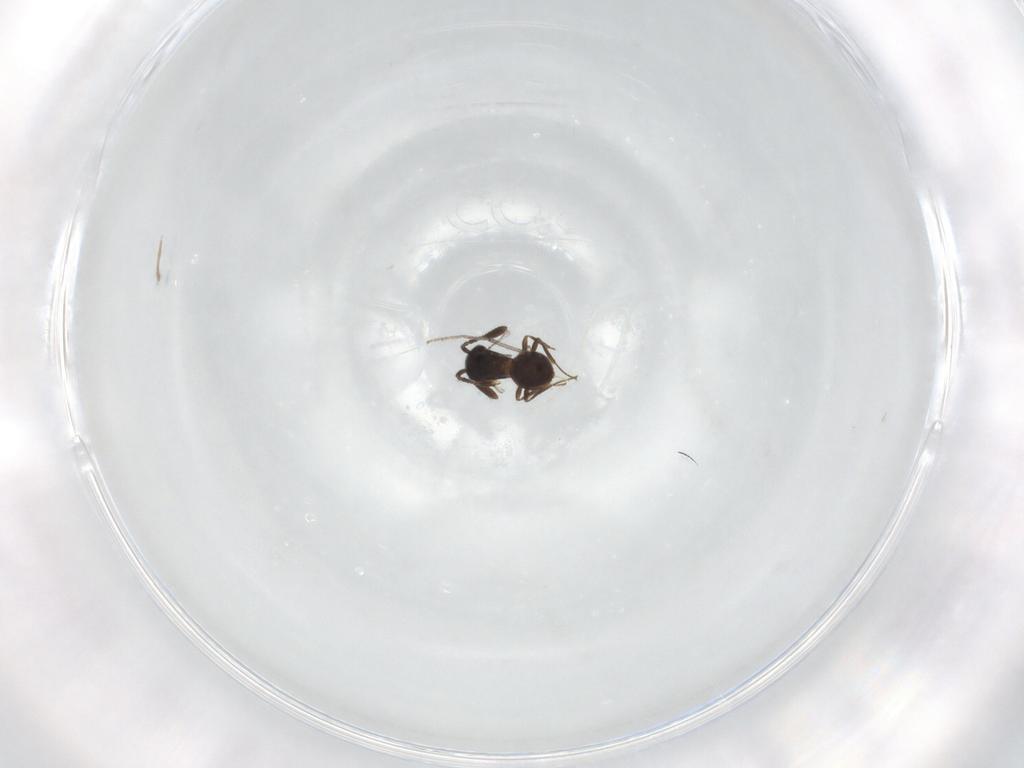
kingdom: Animalia
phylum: Arthropoda
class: Insecta
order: Hymenoptera
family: Scelionidae
